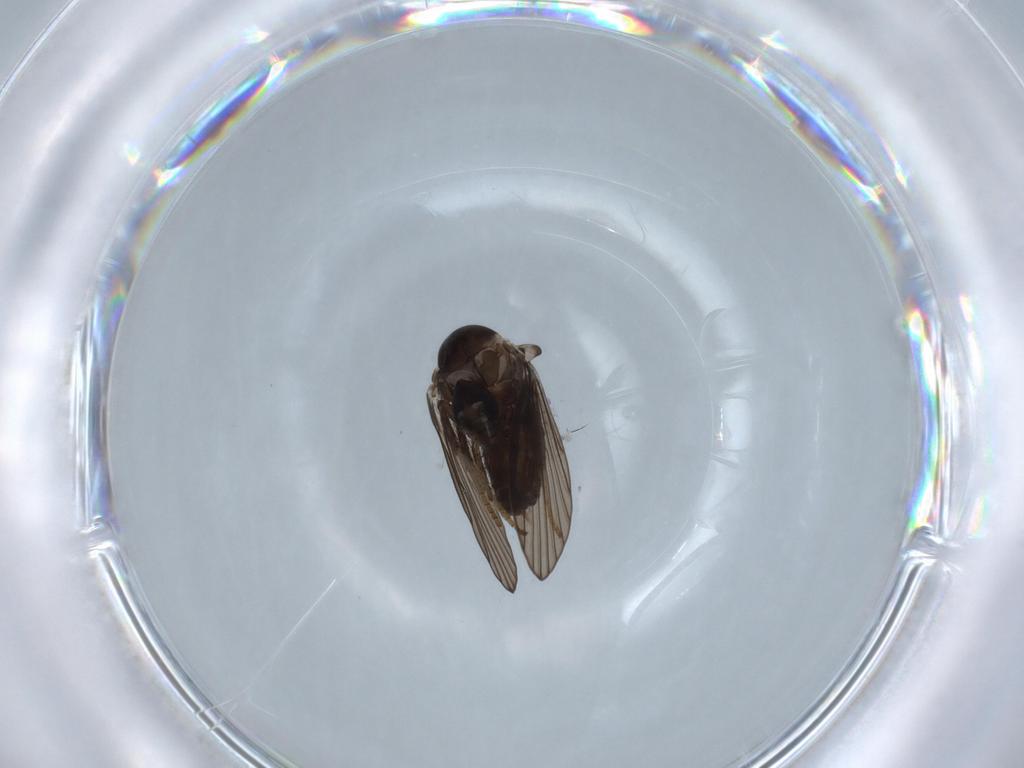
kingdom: Animalia
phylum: Arthropoda
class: Insecta
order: Diptera
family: Psychodidae
